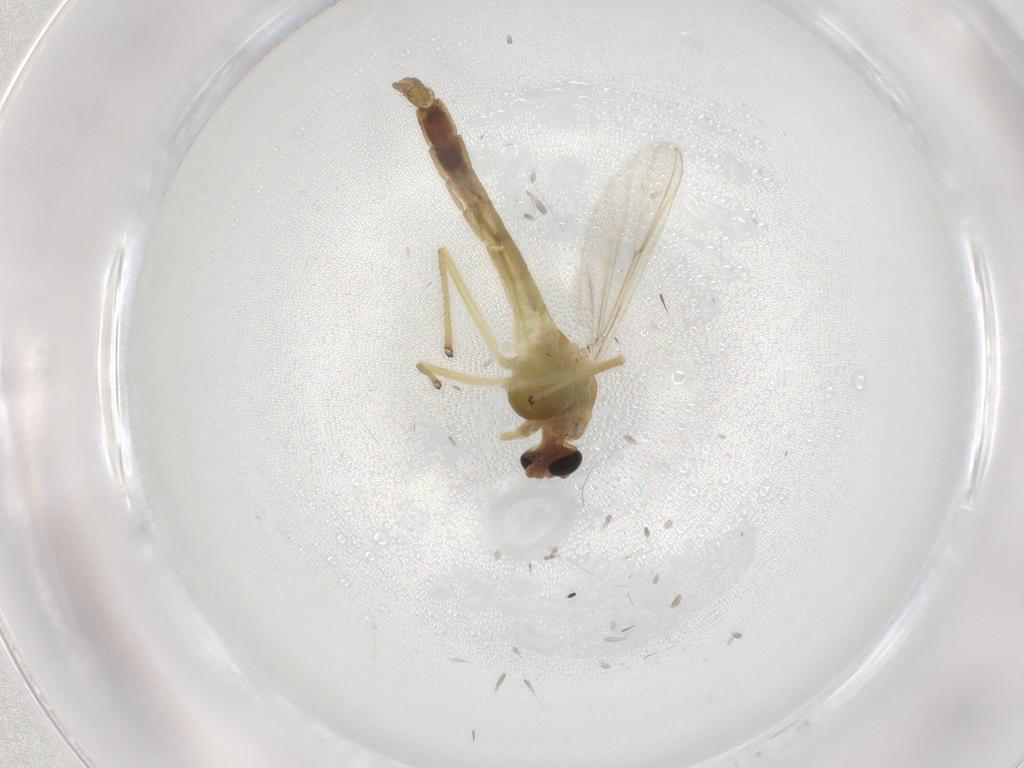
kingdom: Animalia
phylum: Arthropoda
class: Insecta
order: Diptera
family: Chironomidae
